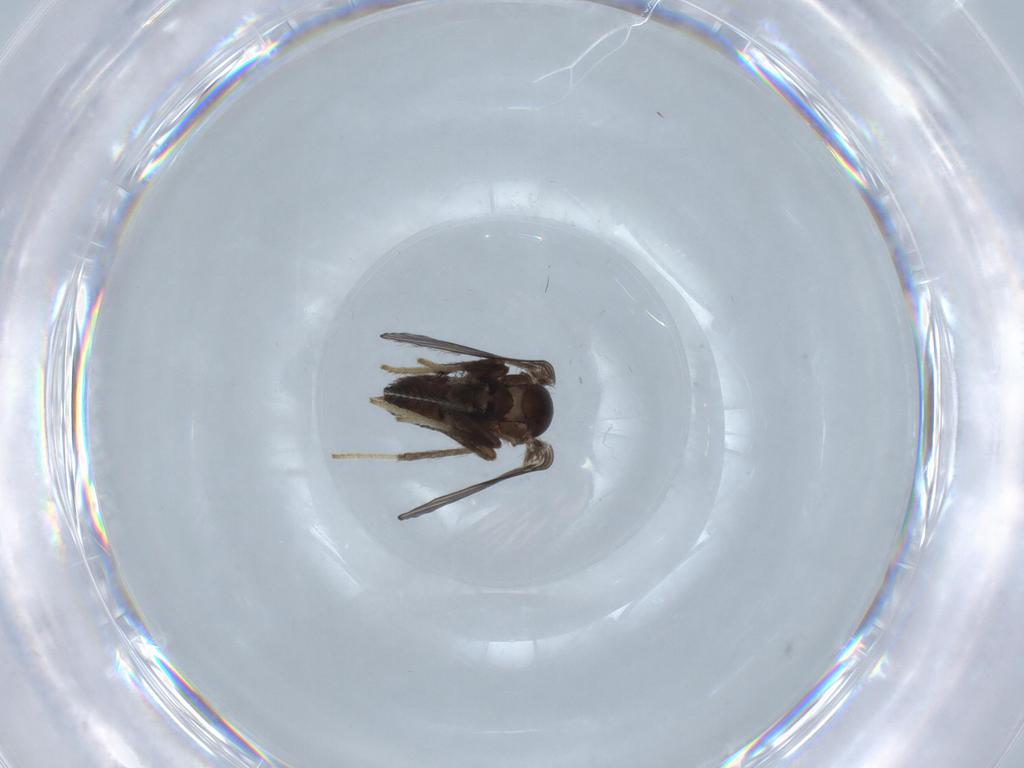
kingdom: Animalia
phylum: Arthropoda
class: Insecta
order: Diptera
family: Psychodidae
